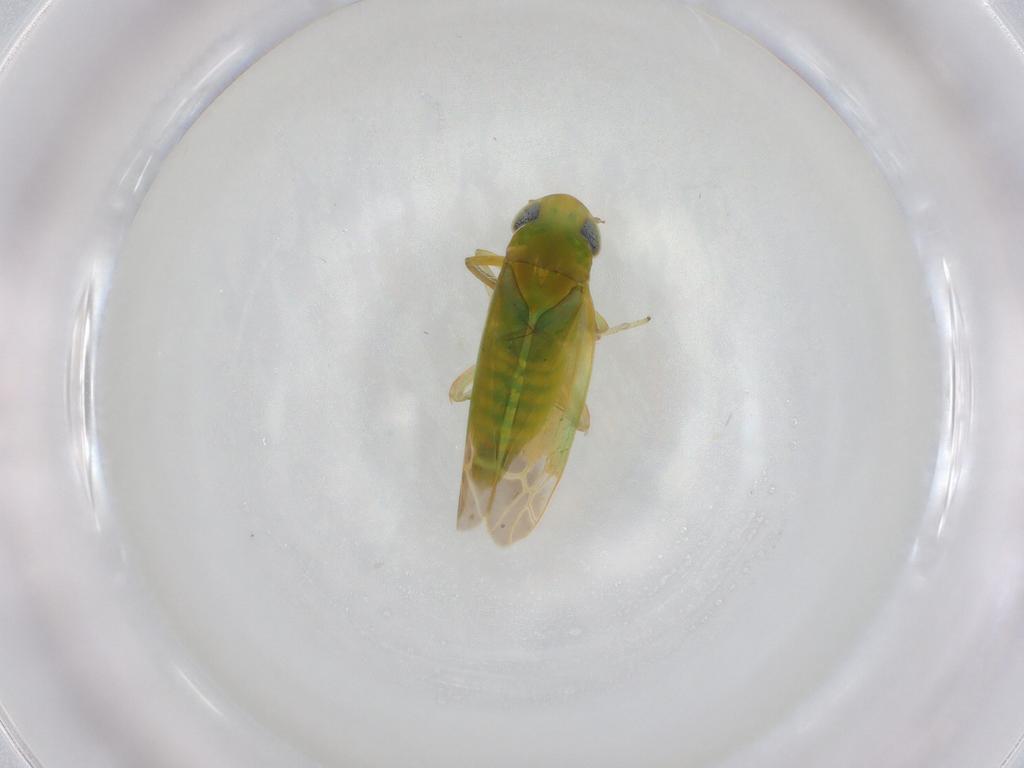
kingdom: Animalia
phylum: Arthropoda
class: Insecta
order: Hemiptera
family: Cicadellidae
